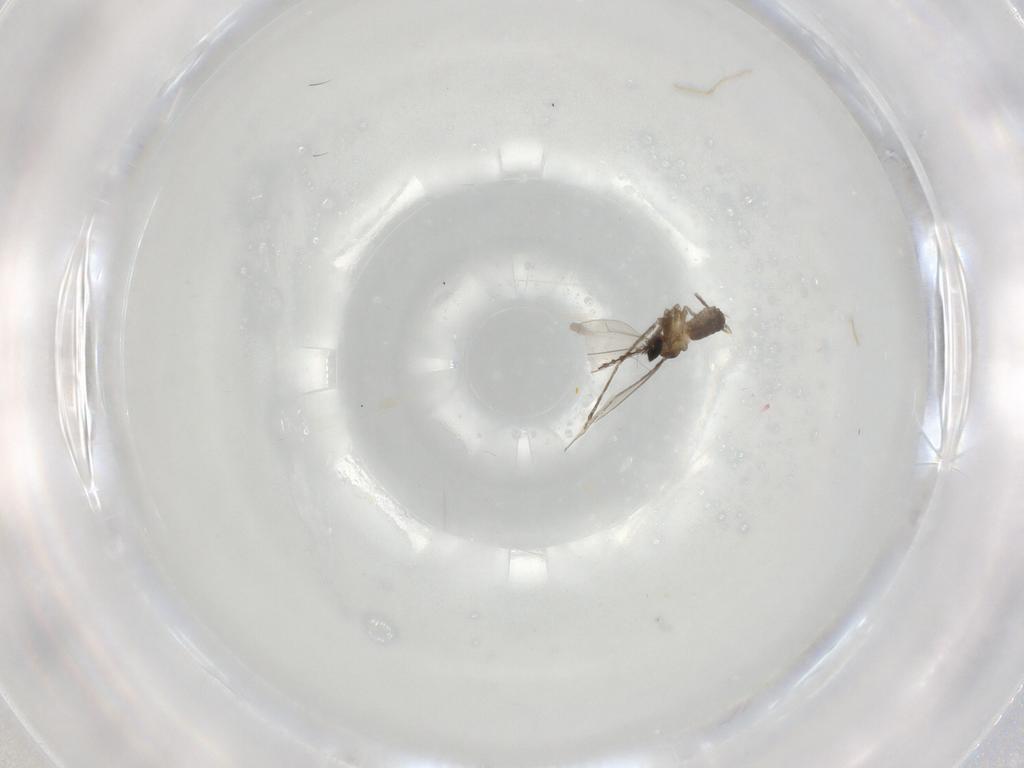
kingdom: Animalia
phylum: Arthropoda
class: Insecta
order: Diptera
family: Cecidomyiidae
